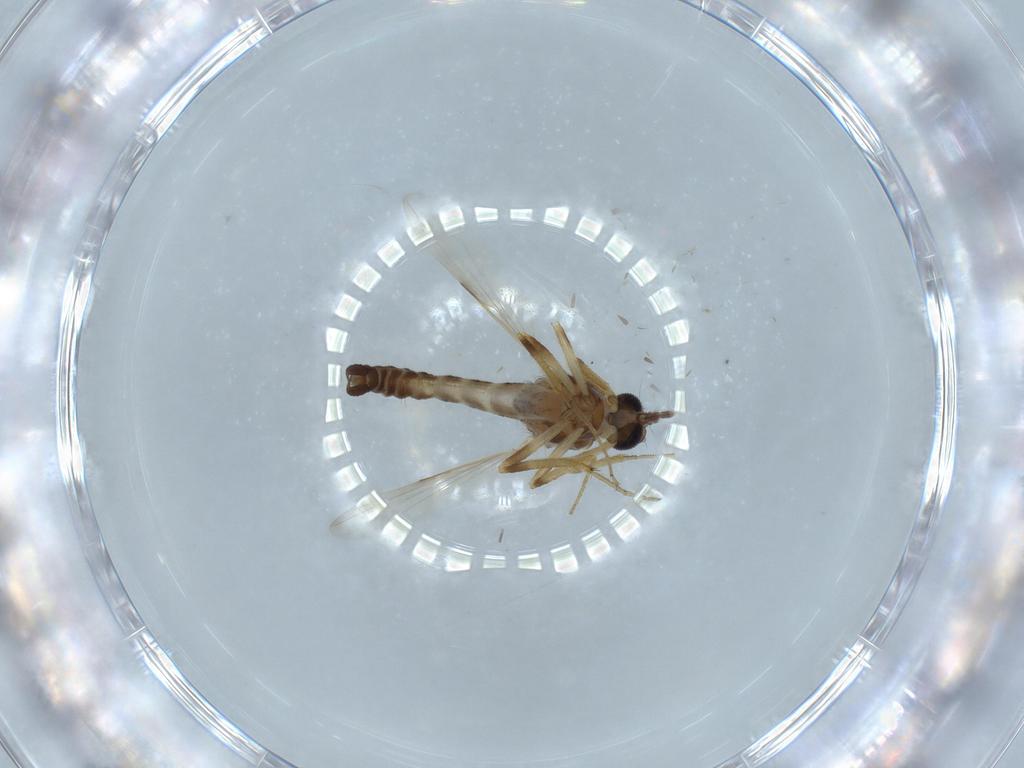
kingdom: Animalia
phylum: Arthropoda
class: Insecta
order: Diptera
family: Ceratopogonidae
